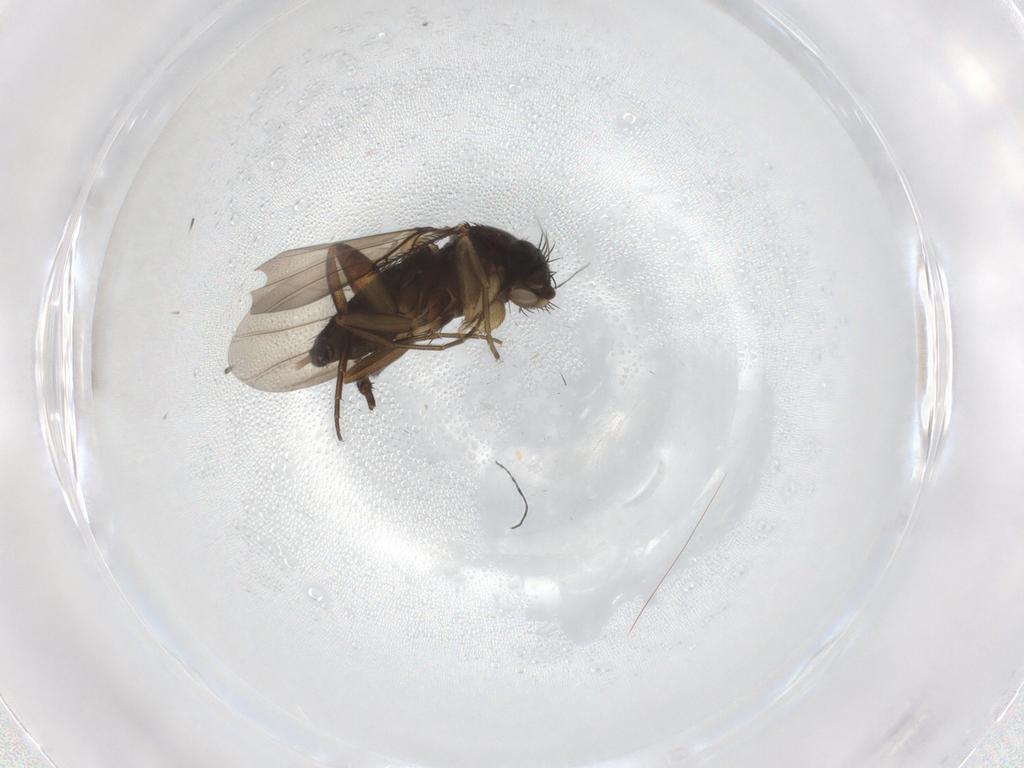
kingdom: Animalia
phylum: Arthropoda
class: Insecta
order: Diptera
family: Phoridae
